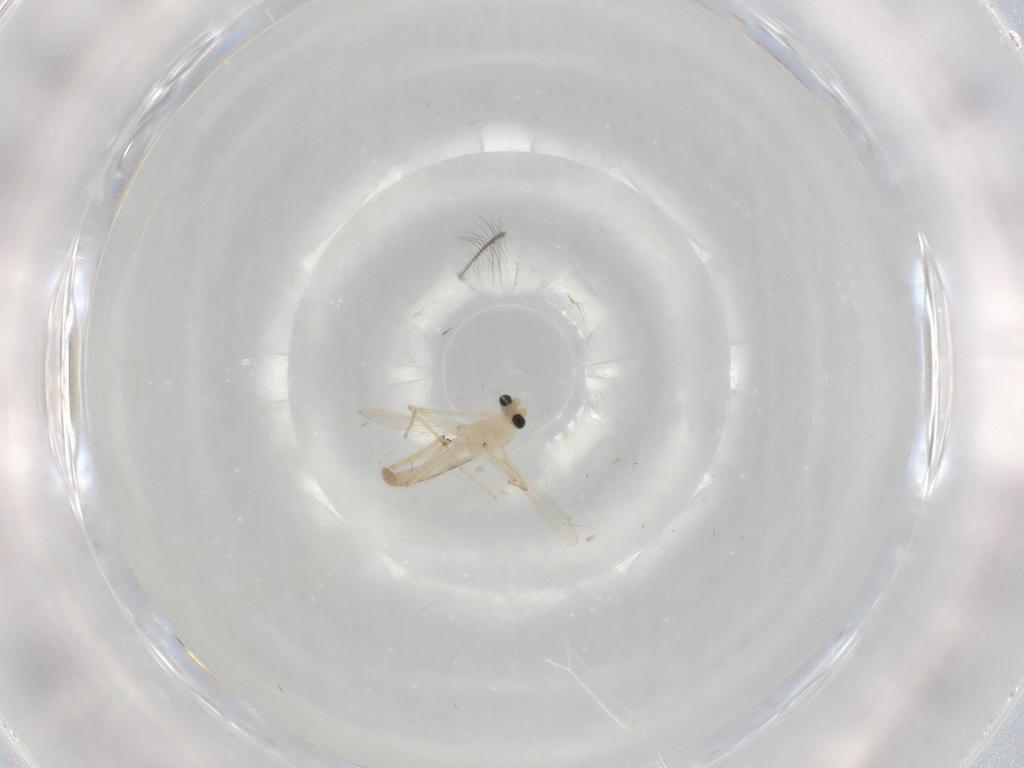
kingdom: Animalia
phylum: Arthropoda
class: Insecta
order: Diptera
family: Chironomidae
